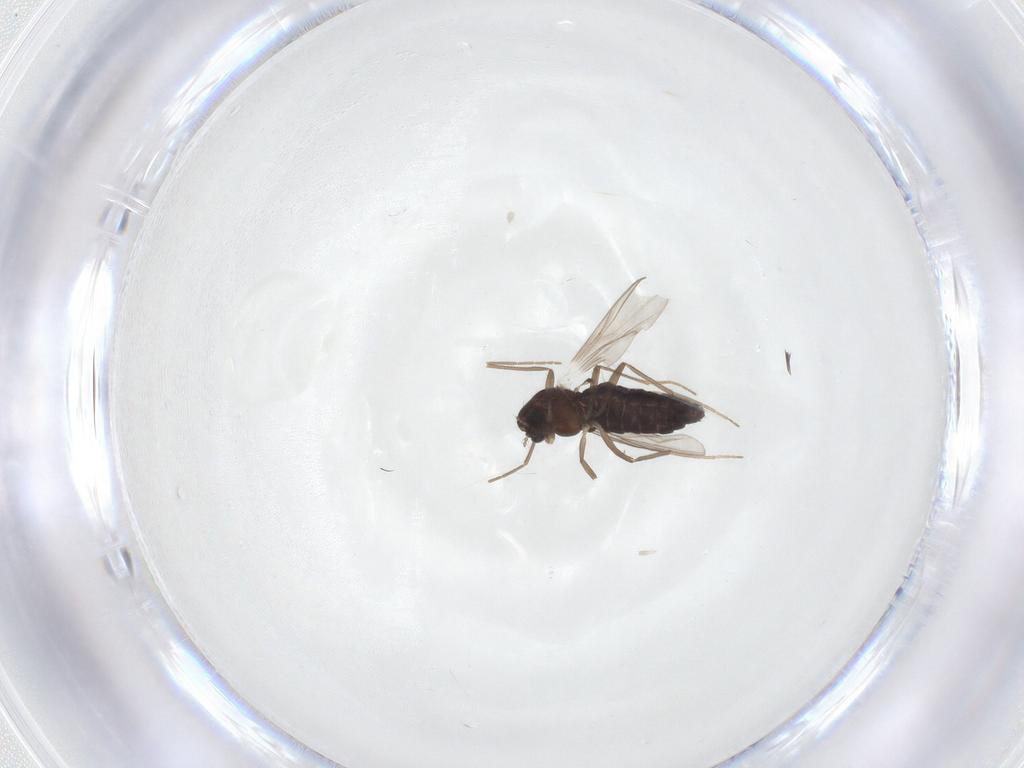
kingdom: Animalia
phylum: Arthropoda
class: Insecta
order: Diptera
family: Chironomidae
